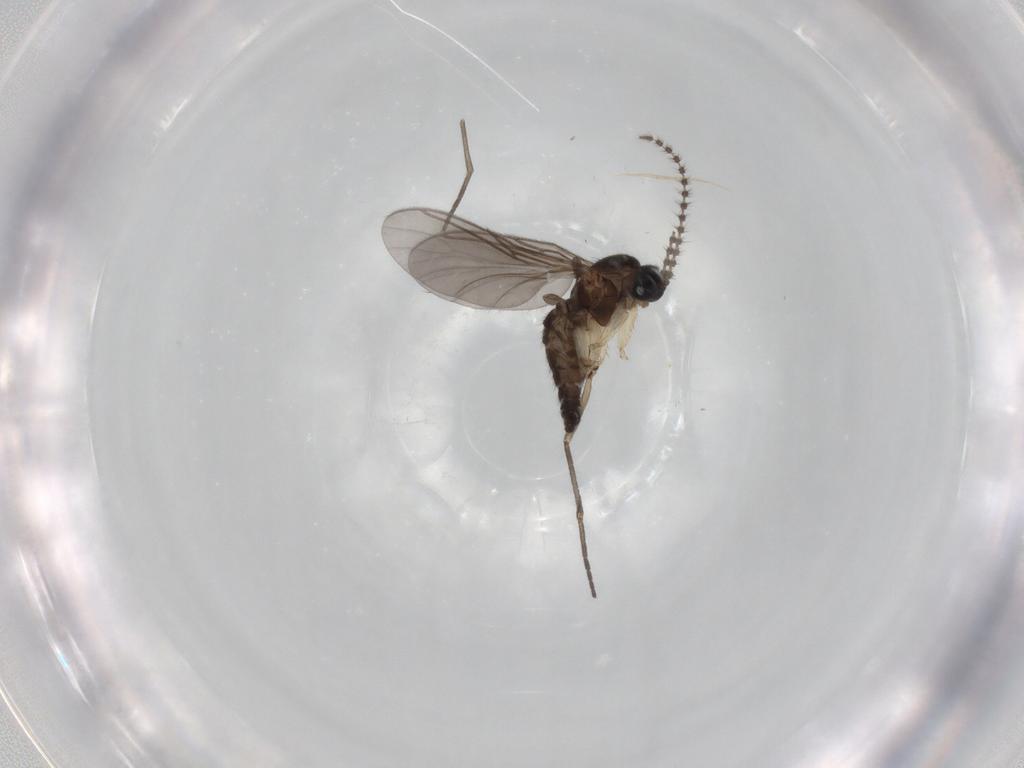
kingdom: Animalia
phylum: Arthropoda
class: Insecta
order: Diptera
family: Sciaridae
